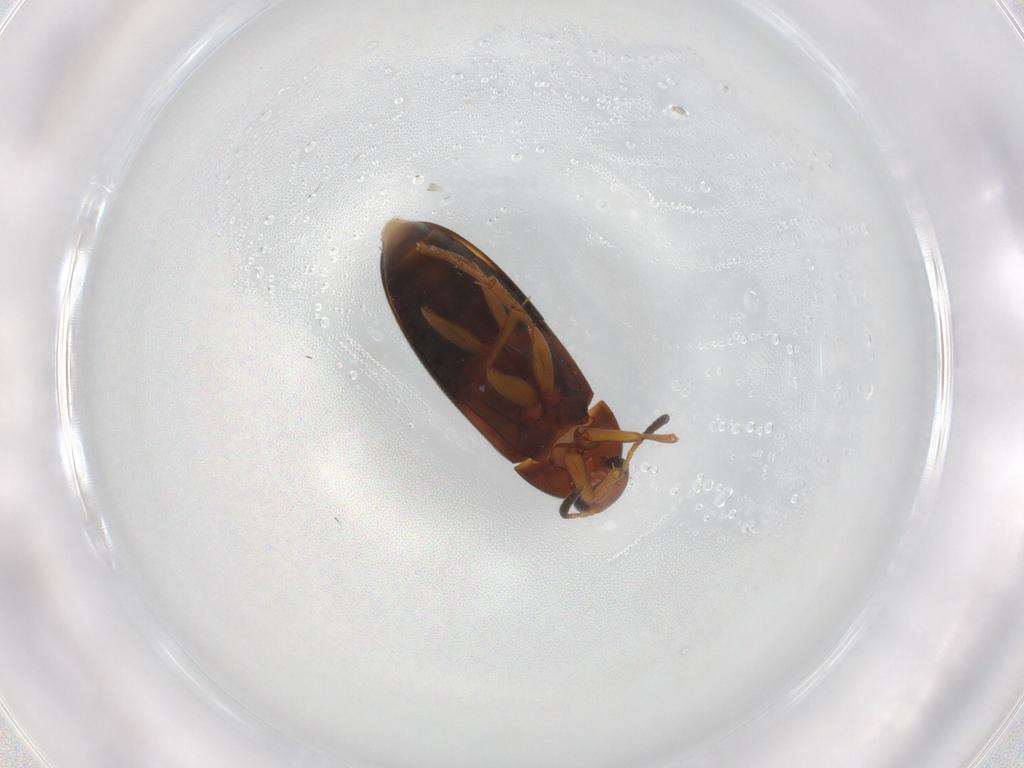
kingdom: Animalia
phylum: Arthropoda
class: Insecta
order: Coleoptera
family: Scraptiidae
